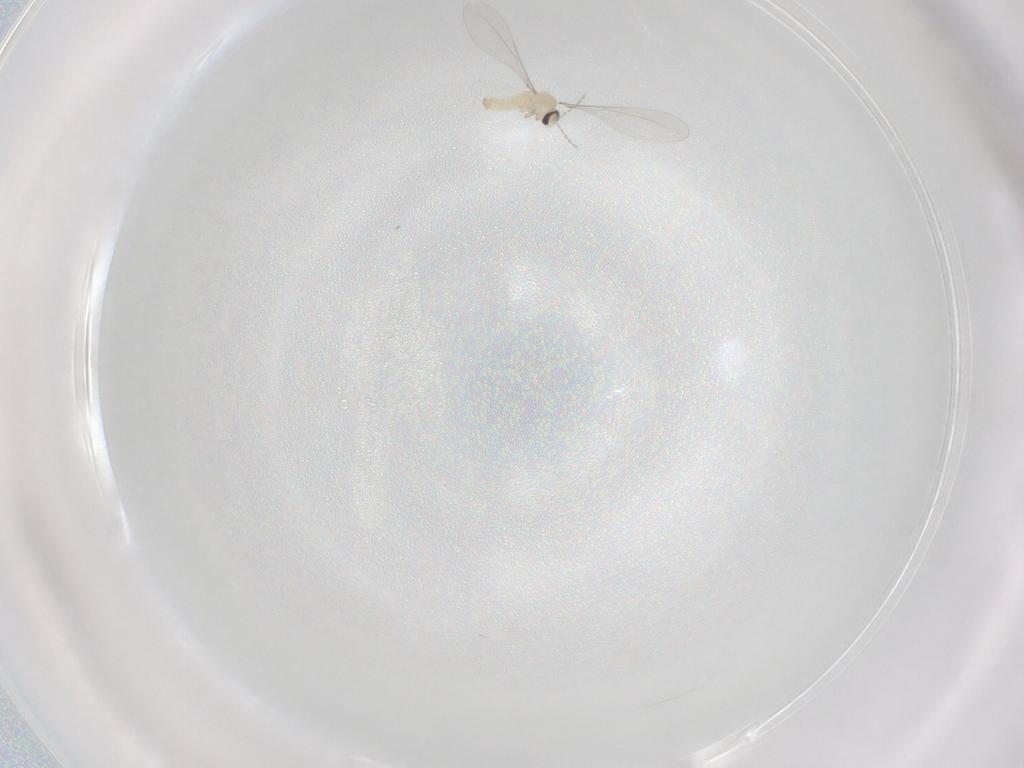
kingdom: Animalia
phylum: Arthropoda
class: Insecta
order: Diptera
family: Cecidomyiidae
